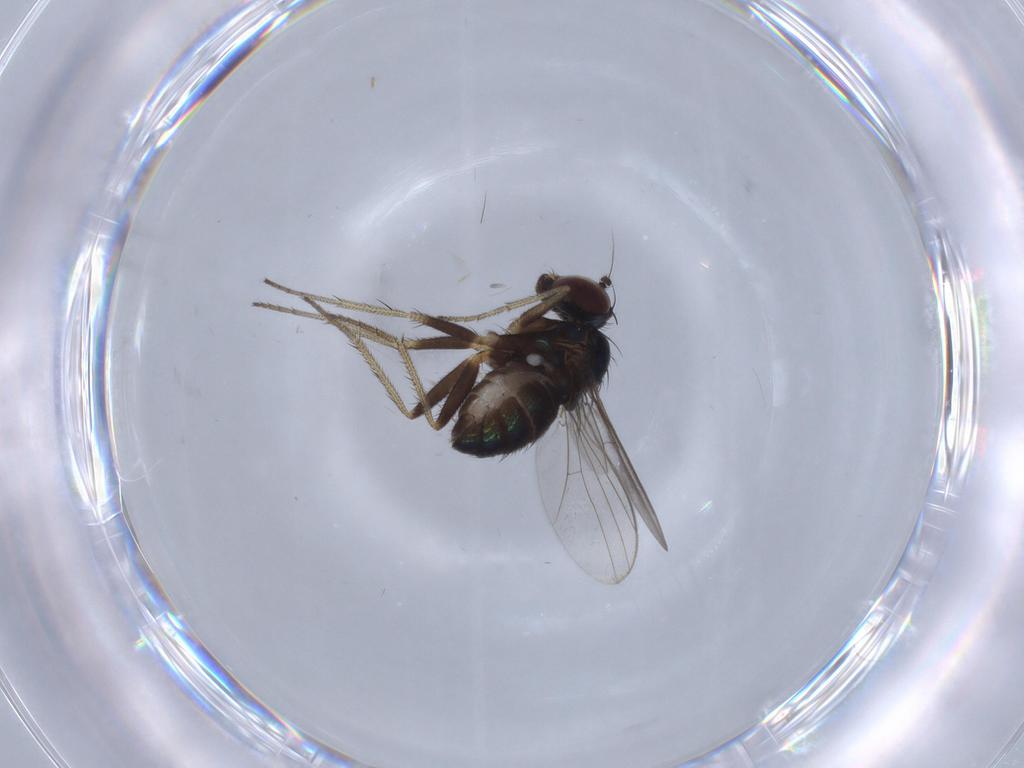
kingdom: Animalia
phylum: Arthropoda
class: Insecta
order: Diptera
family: Dolichopodidae
